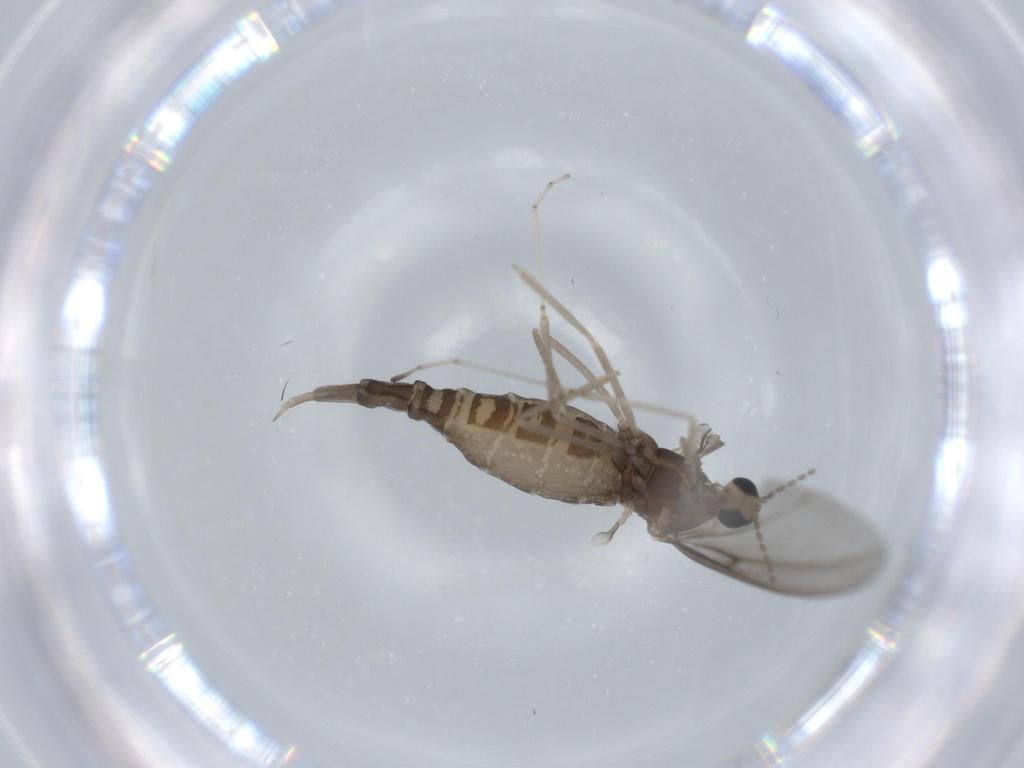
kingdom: Animalia
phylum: Arthropoda
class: Insecta
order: Diptera
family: Cecidomyiidae
